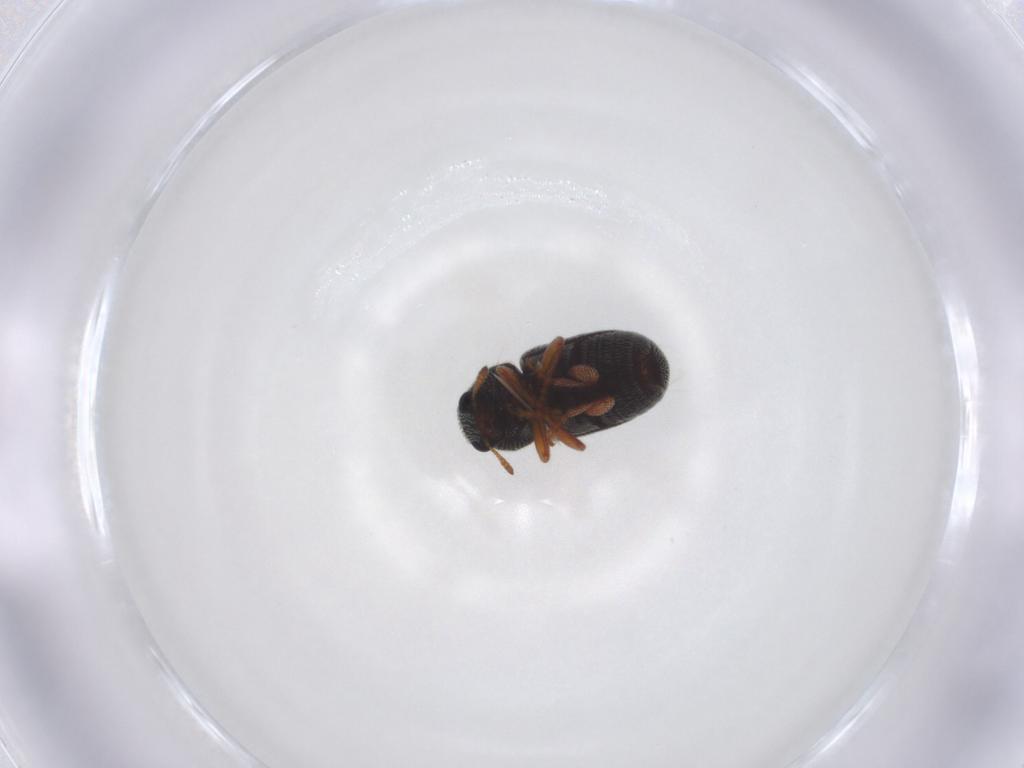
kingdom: Animalia
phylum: Arthropoda
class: Insecta
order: Coleoptera
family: Anthribidae
